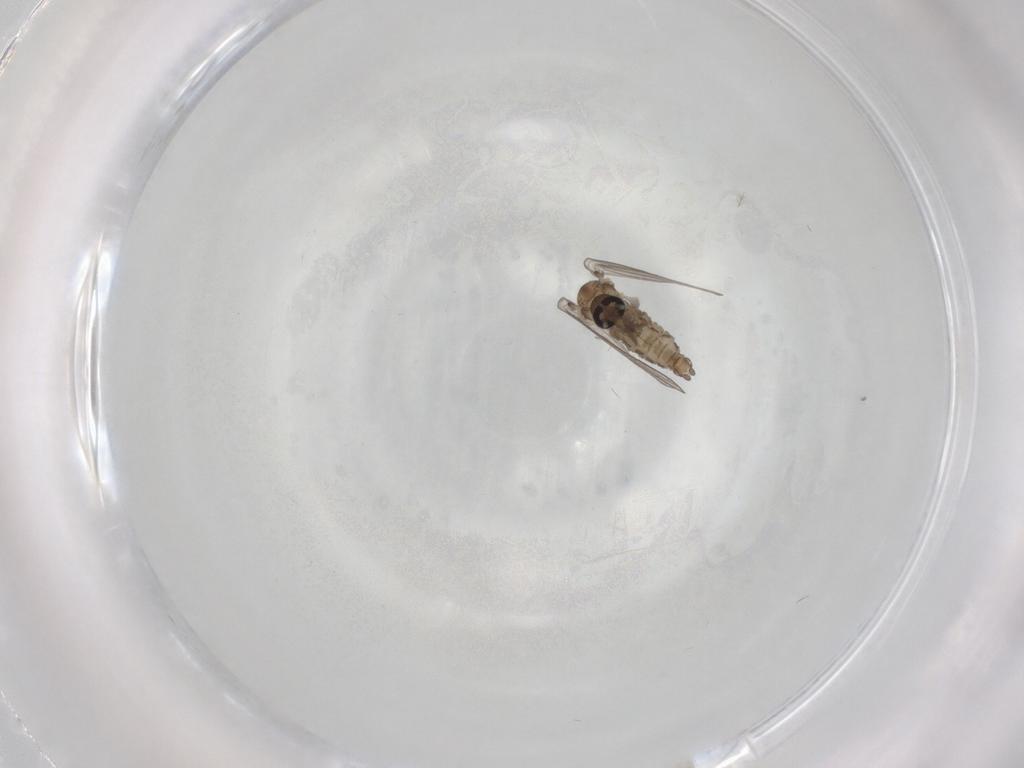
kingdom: Animalia
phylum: Arthropoda
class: Insecta
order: Diptera
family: Psychodidae
